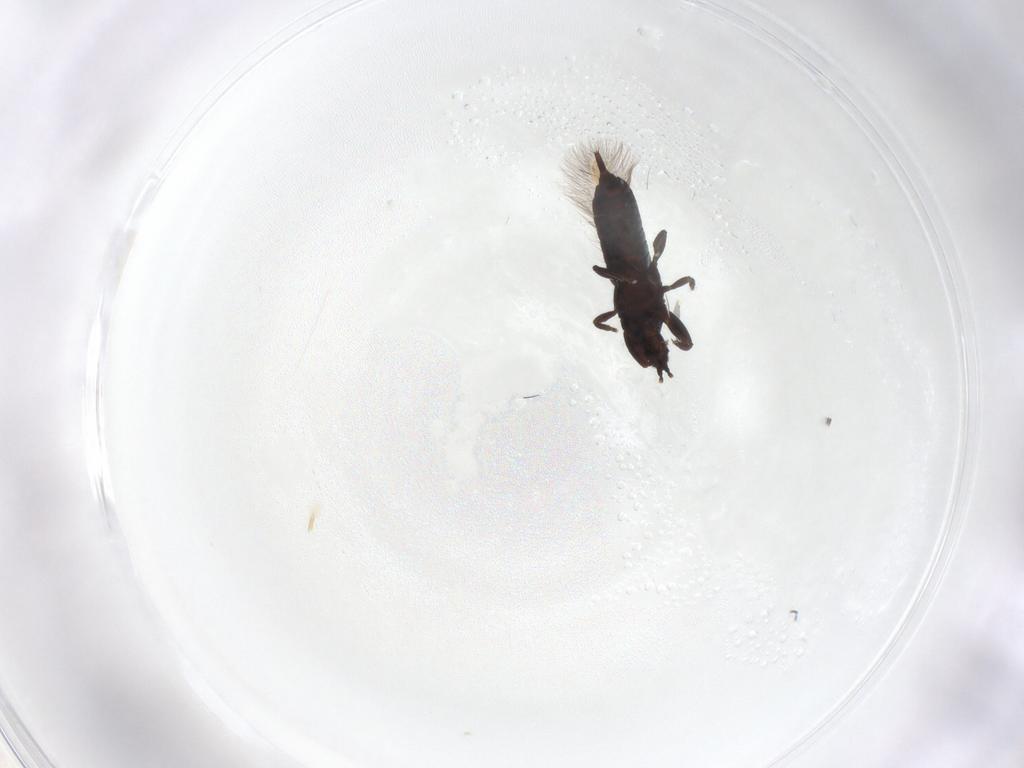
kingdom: Animalia
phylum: Arthropoda
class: Insecta
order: Thysanoptera
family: Phlaeothripidae
